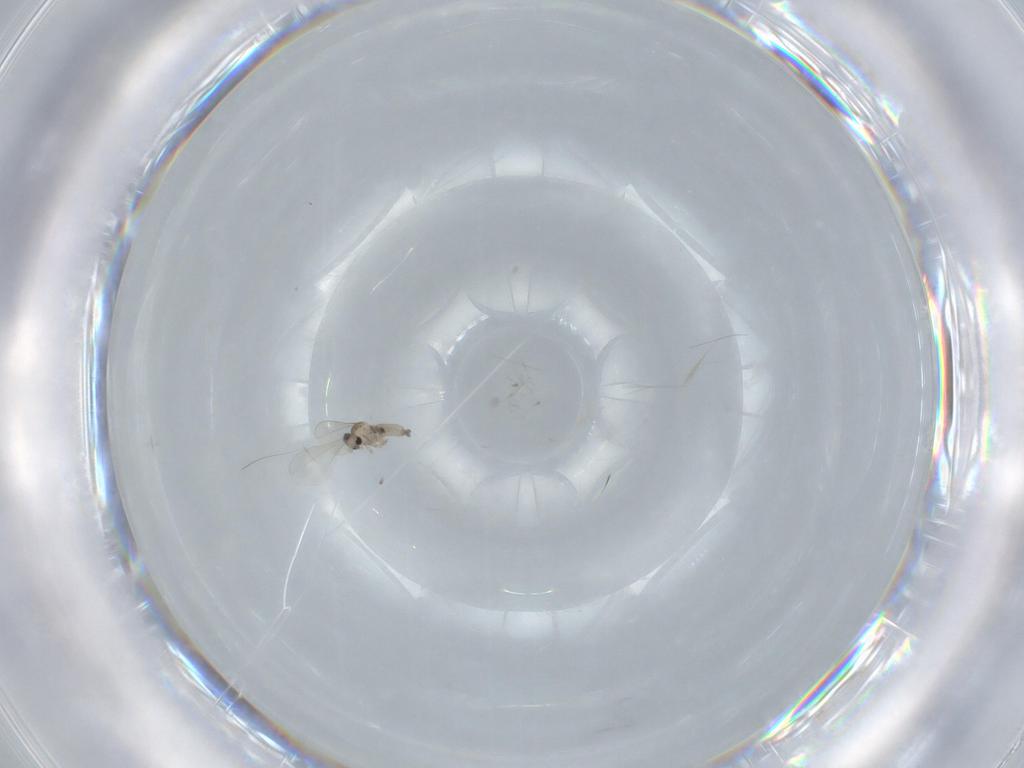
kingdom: Animalia
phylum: Arthropoda
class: Insecta
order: Diptera
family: Cecidomyiidae
